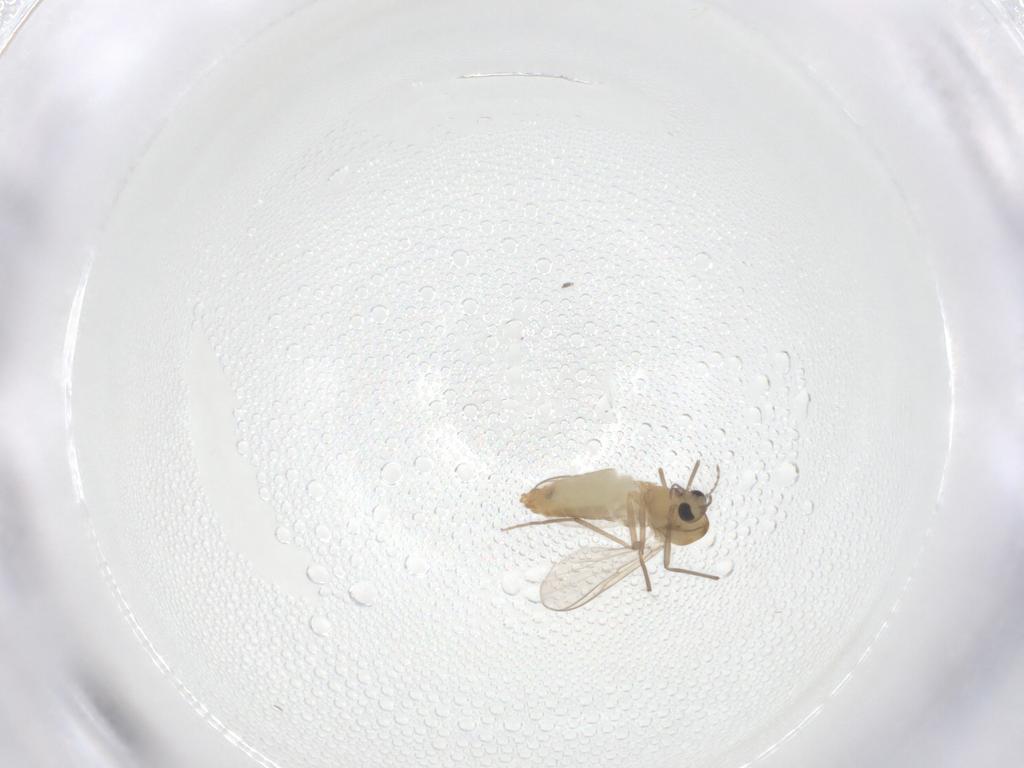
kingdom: Animalia
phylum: Arthropoda
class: Insecta
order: Diptera
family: Chironomidae
